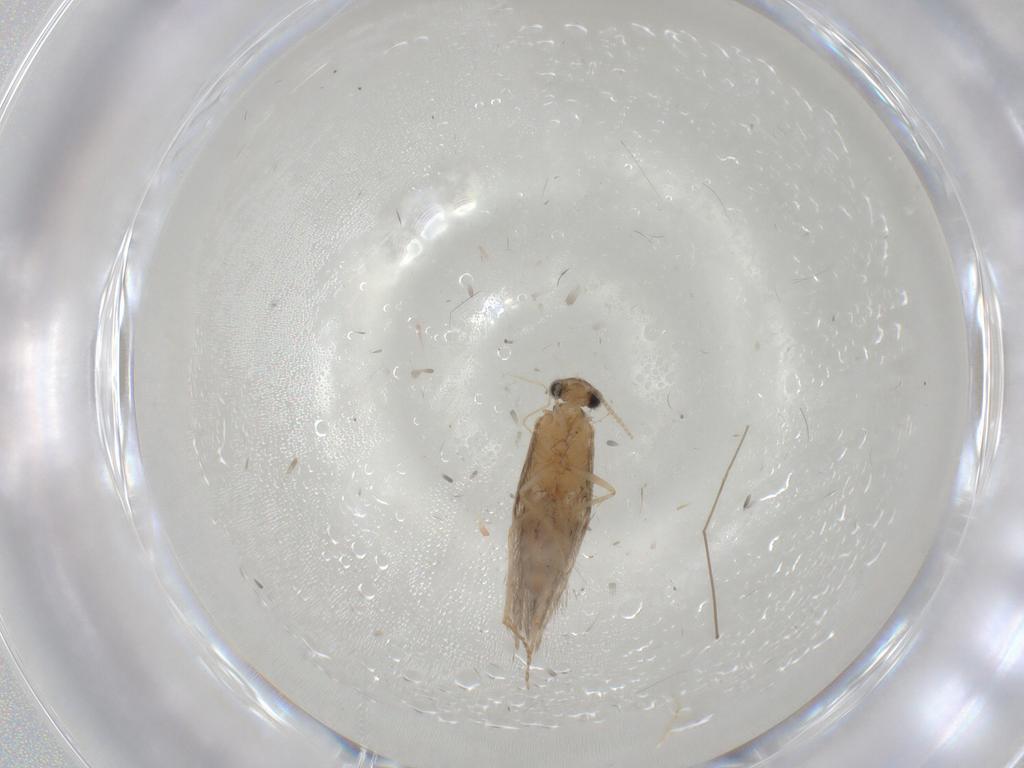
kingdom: Animalia
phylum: Arthropoda
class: Insecta
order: Trichoptera
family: Hydroptilidae
